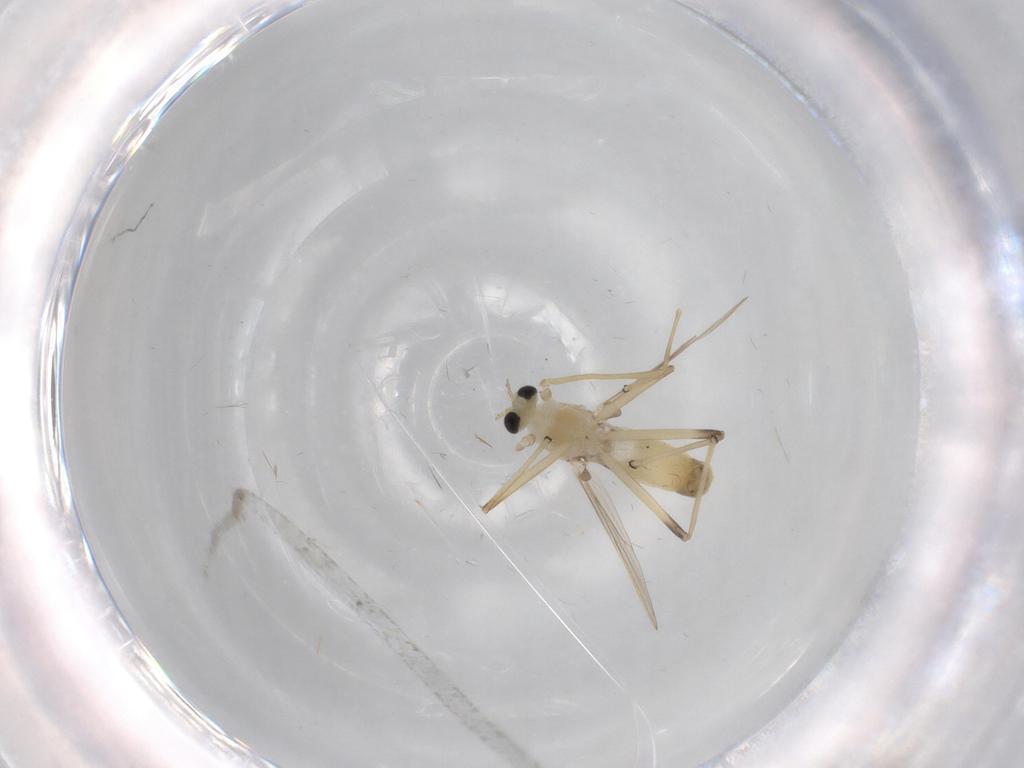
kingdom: Animalia
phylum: Arthropoda
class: Insecta
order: Diptera
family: Chironomidae
